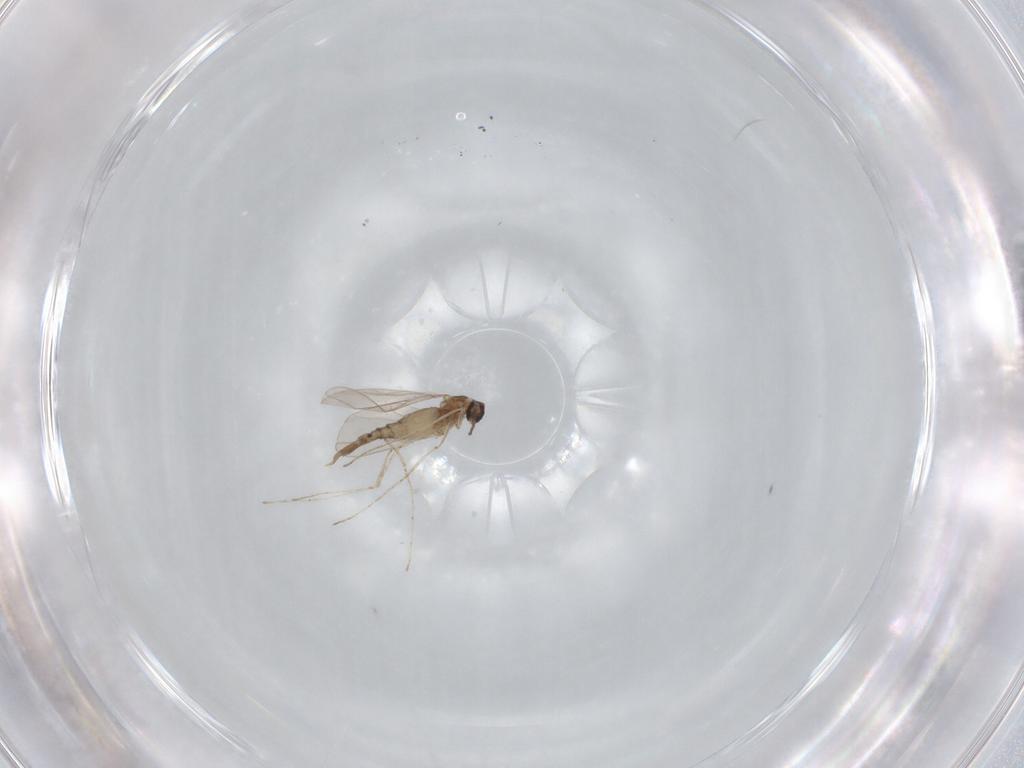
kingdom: Animalia
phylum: Arthropoda
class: Insecta
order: Diptera
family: Cecidomyiidae
